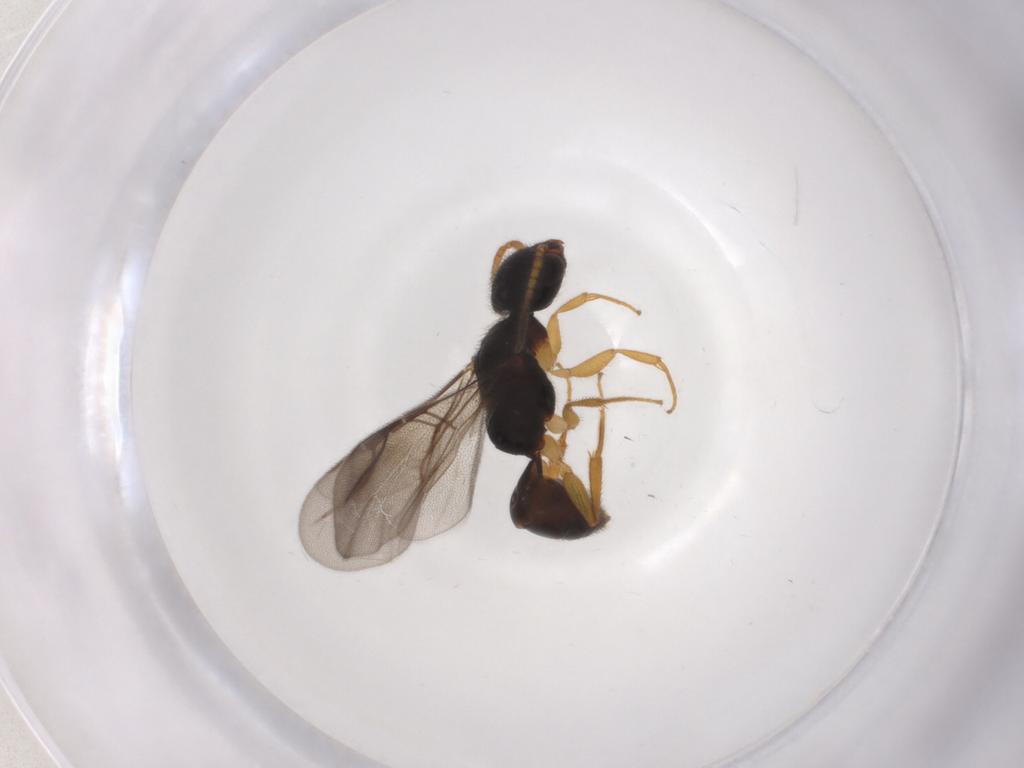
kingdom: Animalia
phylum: Arthropoda
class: Insecta
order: Hymenoptera
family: Bethylidae
